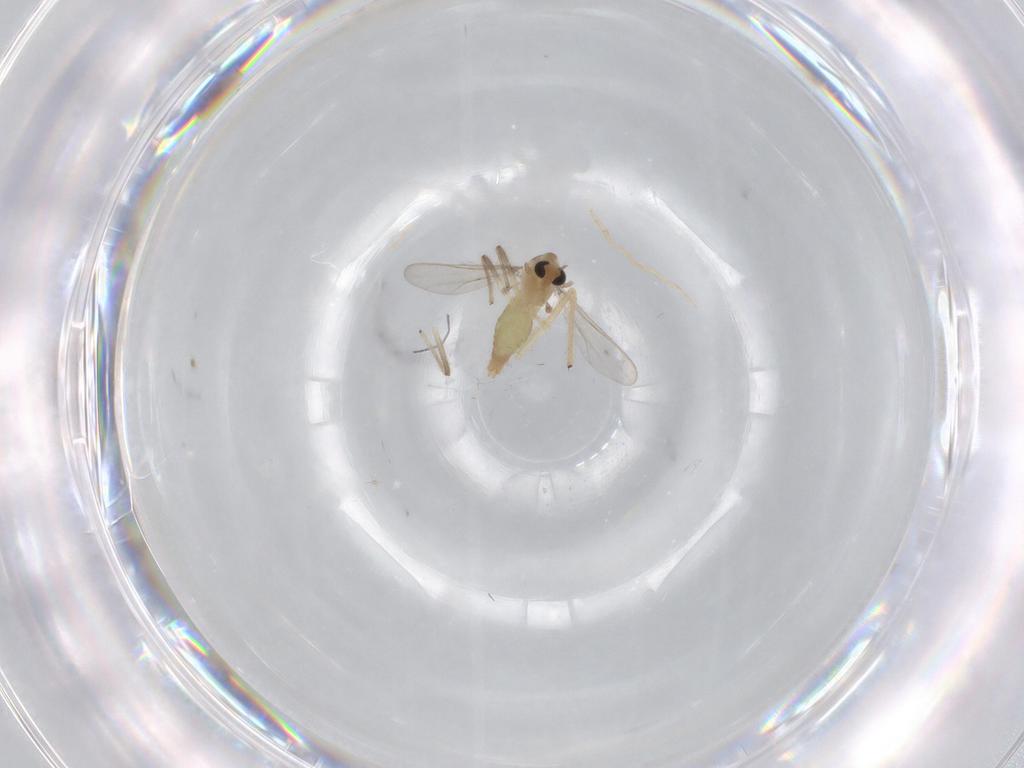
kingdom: Animalia
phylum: Arthropoda
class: Insecta
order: Diptera
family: Chironomidae
